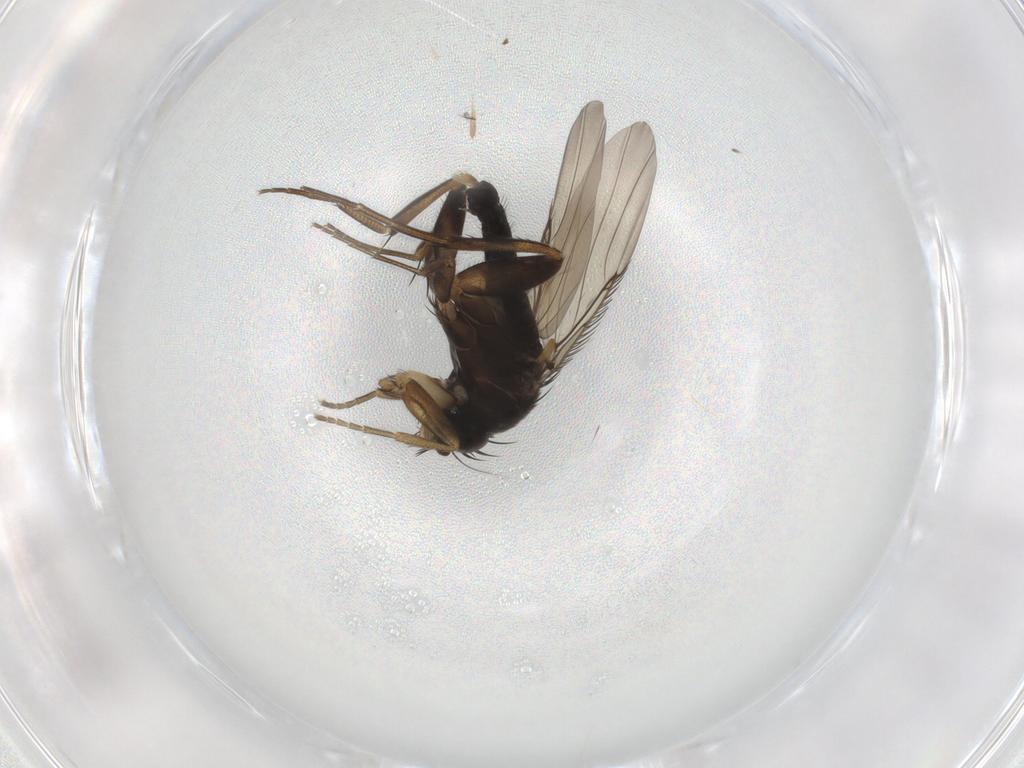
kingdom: Animalia
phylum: Arthropoda
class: Insecta
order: Diptera
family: Phoridae
